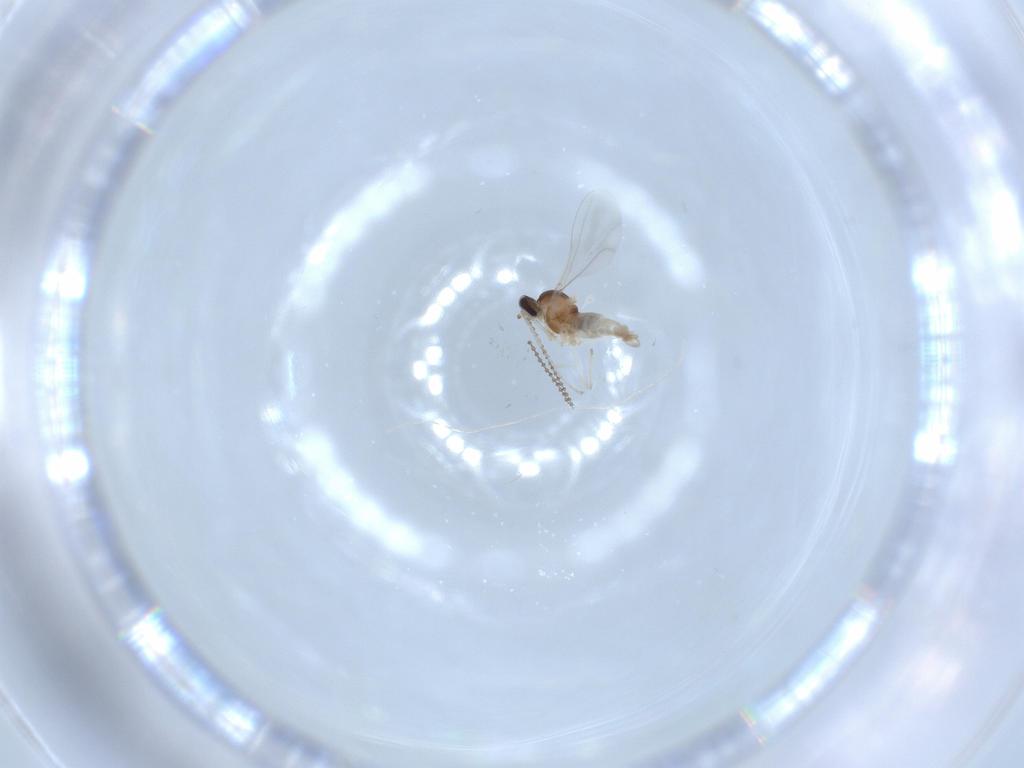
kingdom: Animalia
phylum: Arthropoda
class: Insecta
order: Diptera
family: Cecidomyiidae
